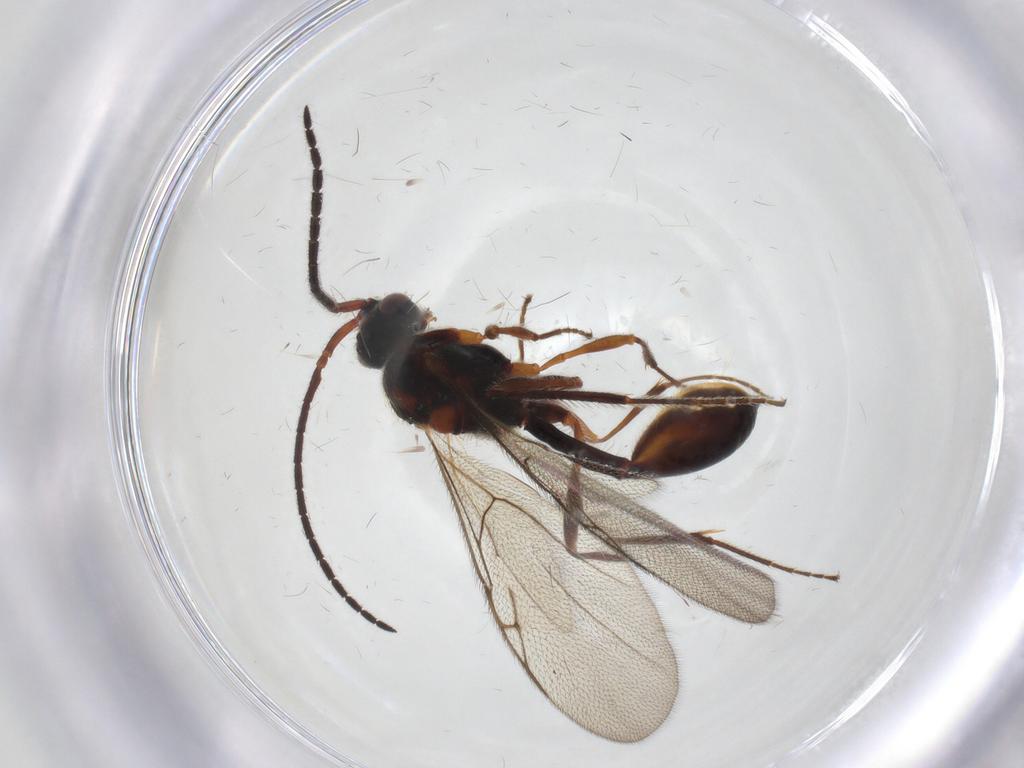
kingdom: Animalia
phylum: Arthropoda
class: Insecta
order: Hymenoptera
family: Diapriidae
